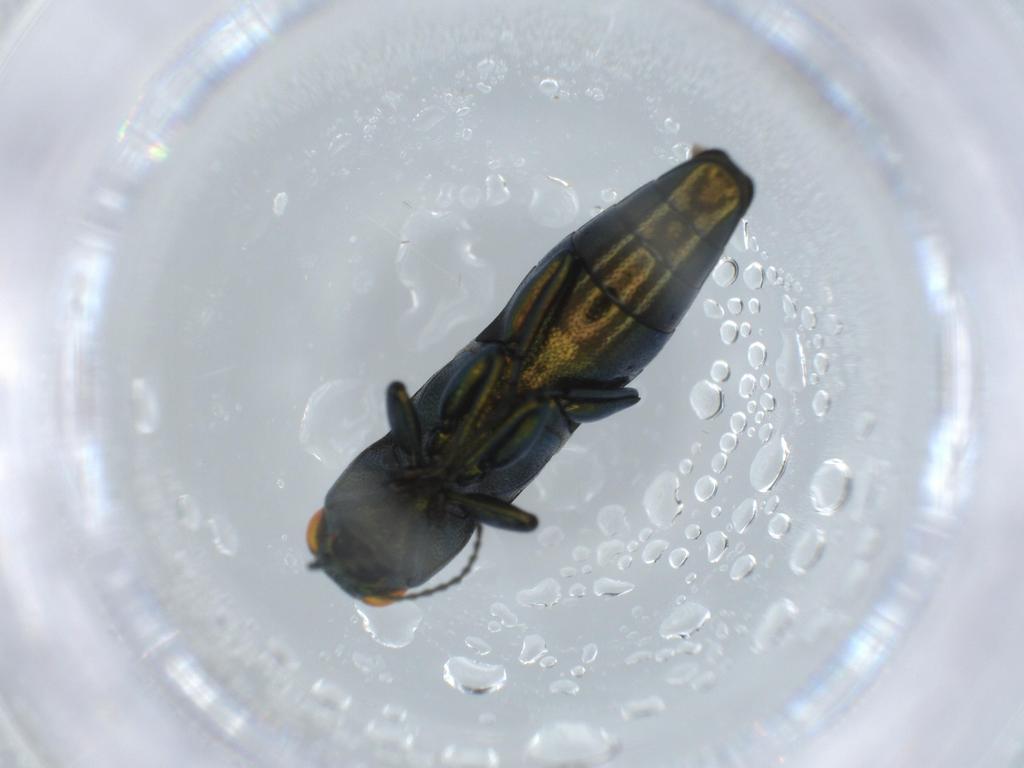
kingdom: Animalia
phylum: Arthropoda
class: Insecta
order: Coleoptera
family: Buprestidae
